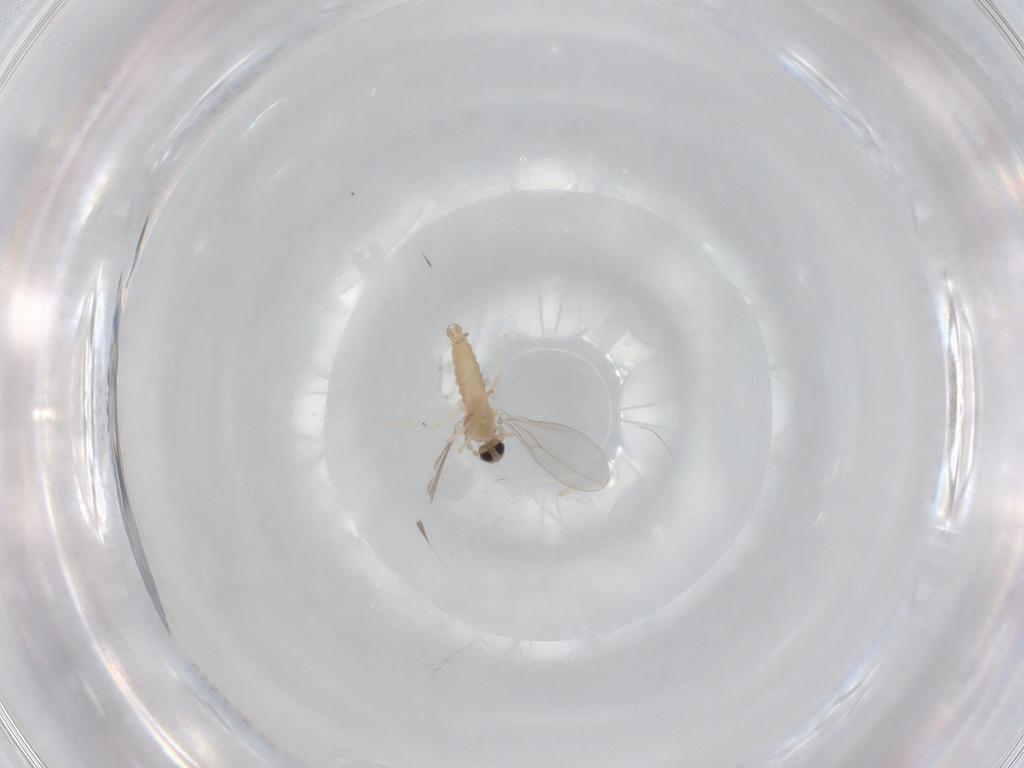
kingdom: Animalia
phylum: Arthropoda
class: Insecta
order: Diptera
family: Cecidomyiidae
